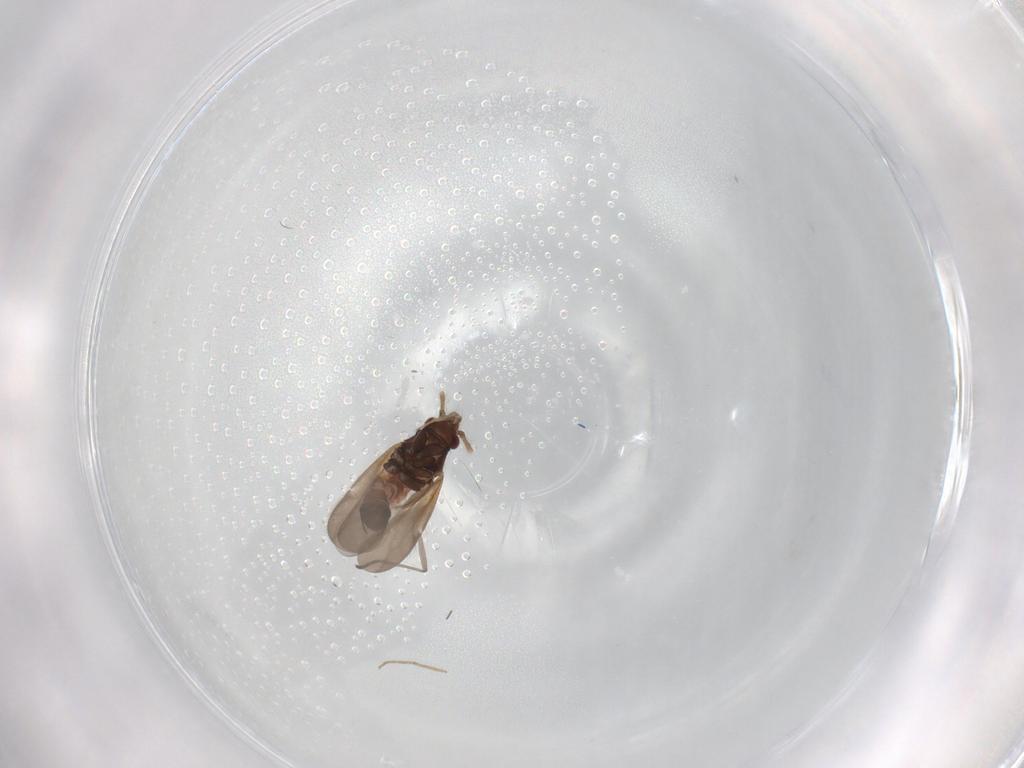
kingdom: Animalia
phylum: Arthropoda
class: Insecta
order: Hemiptera
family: Ceratocombidae
